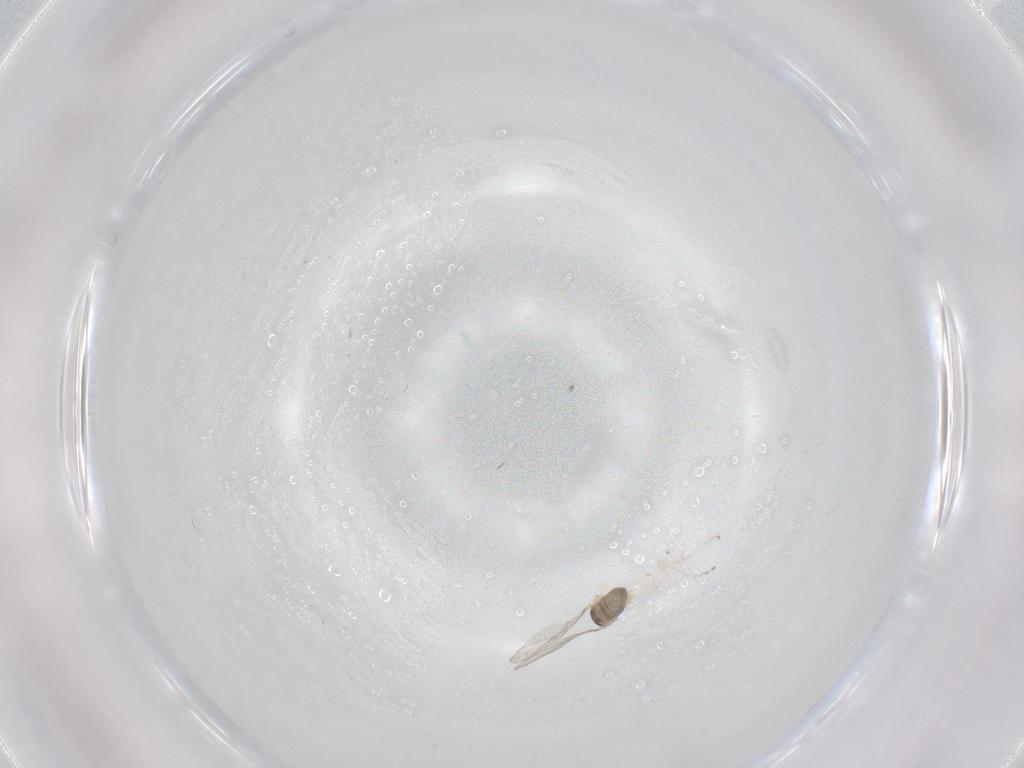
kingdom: Animalia
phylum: Arthropoda
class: Insecta
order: Diptera
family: Cecidomyiidae
